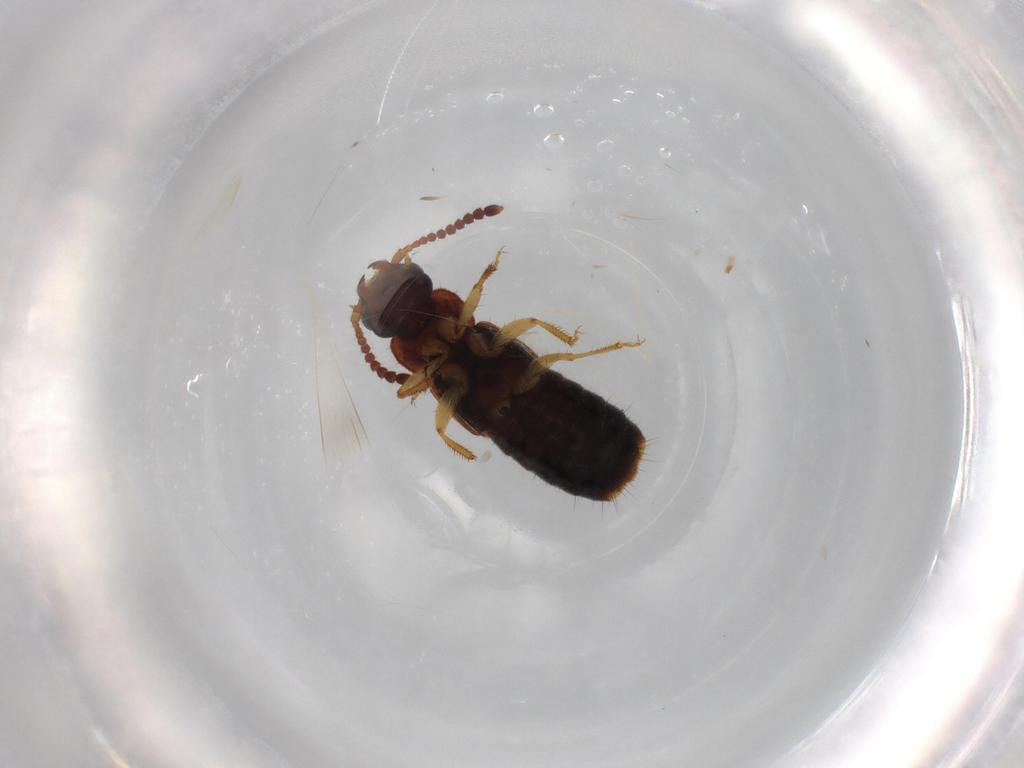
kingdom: Animalia
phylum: Arthropoda
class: Insecta
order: Coleoptera
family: Staphylinidae
